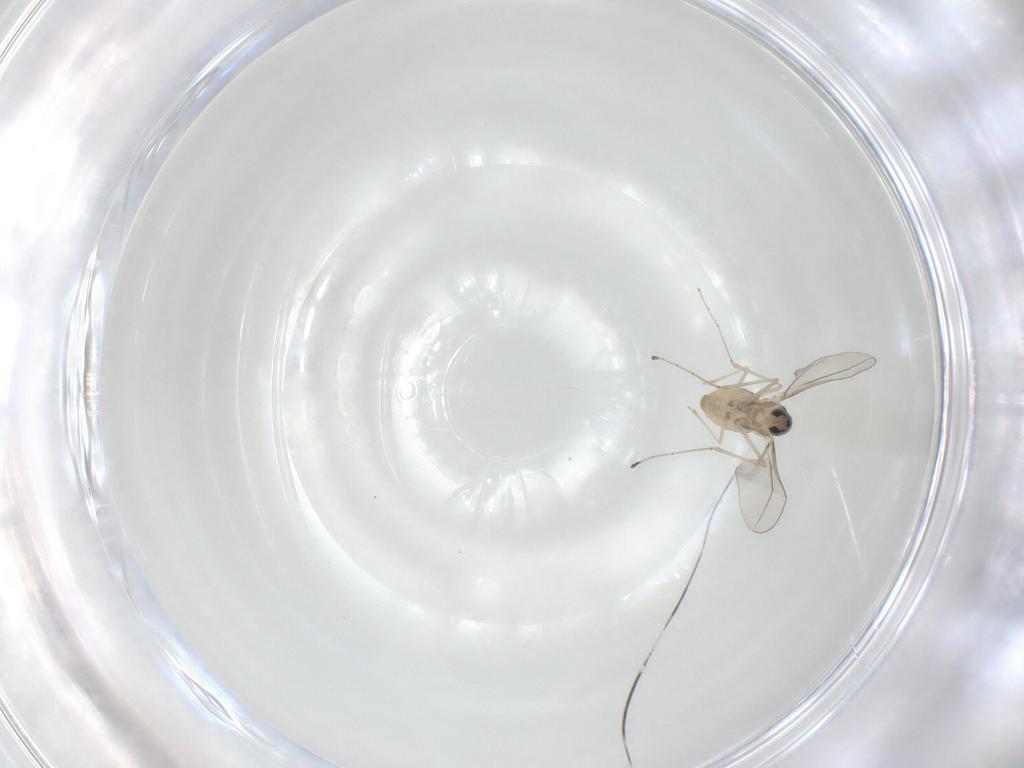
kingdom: Animalia
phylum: Arthropoda
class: Insecta
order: Diptera
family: Cecidomyiidae
